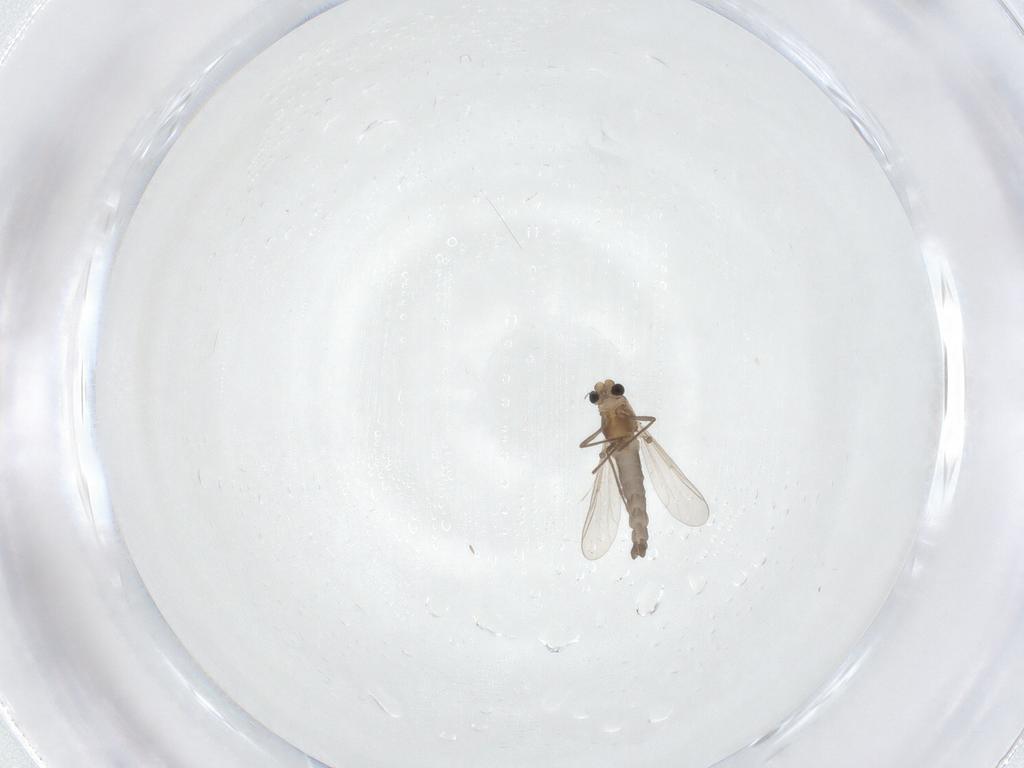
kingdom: Animalia
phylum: Arthropoda
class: Insecta
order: Diptera
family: Chironomidae
